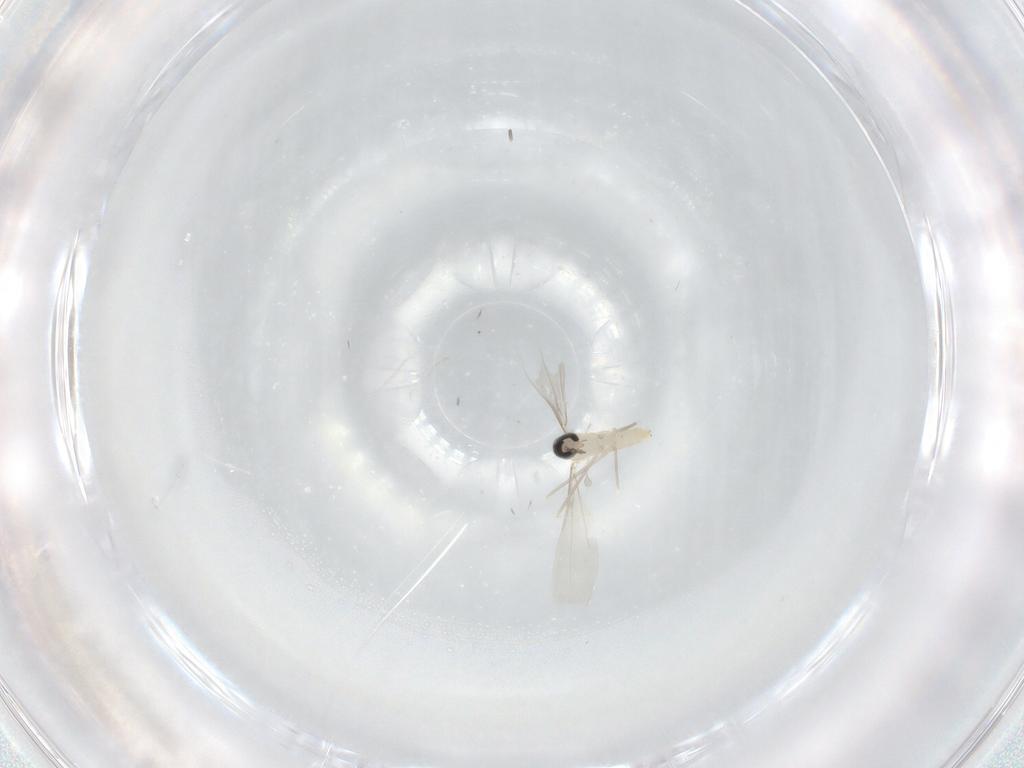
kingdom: Animalia
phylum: Arthropoda
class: Insecta
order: Diptera
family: Cecidomyiidae
